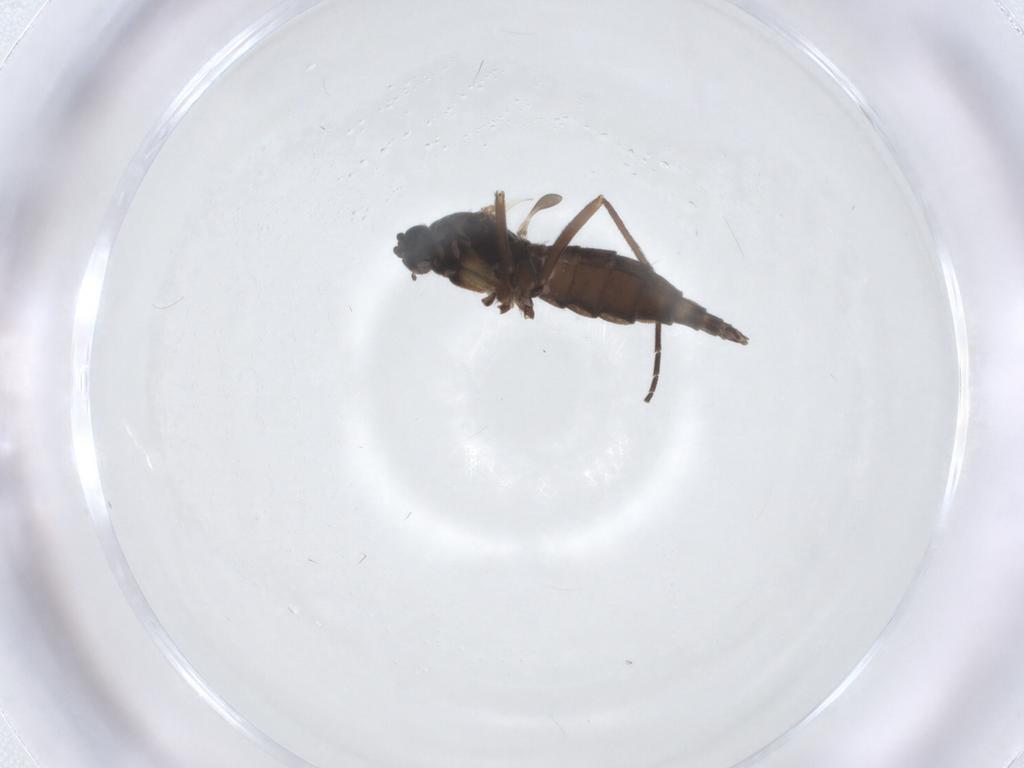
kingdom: Animalia
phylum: Arthropoda
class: Insecta
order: Diptera
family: Sciaridae
